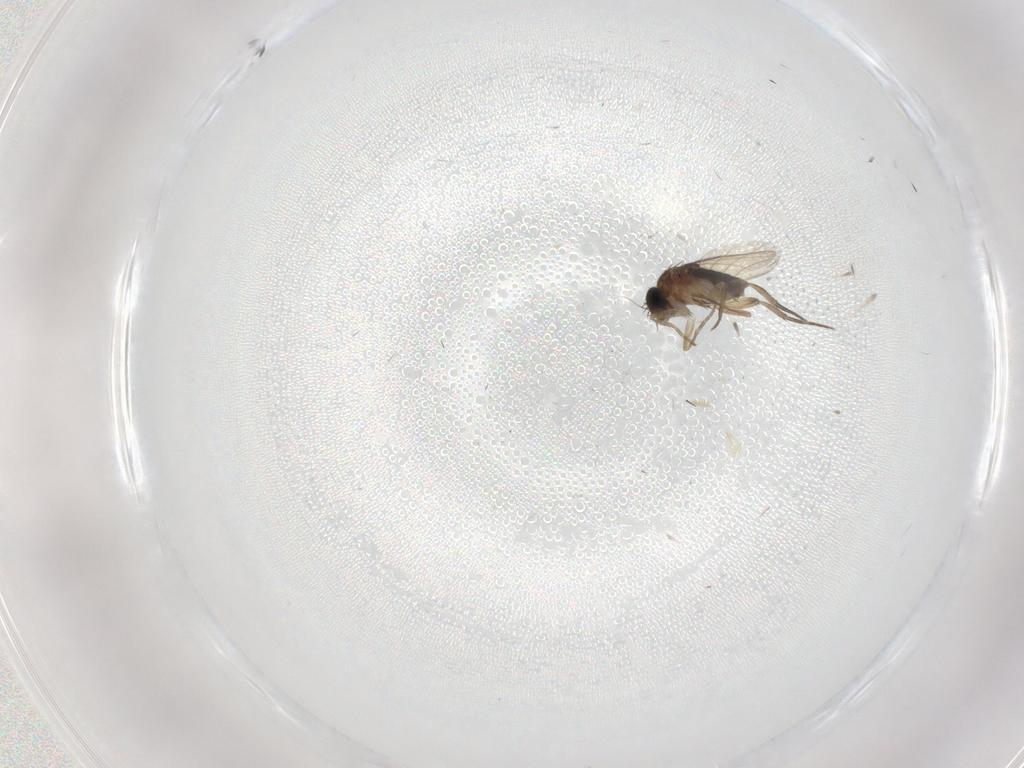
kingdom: Animalia
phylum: Arthropoda
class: Insecta
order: Diptera
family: Phoridae
